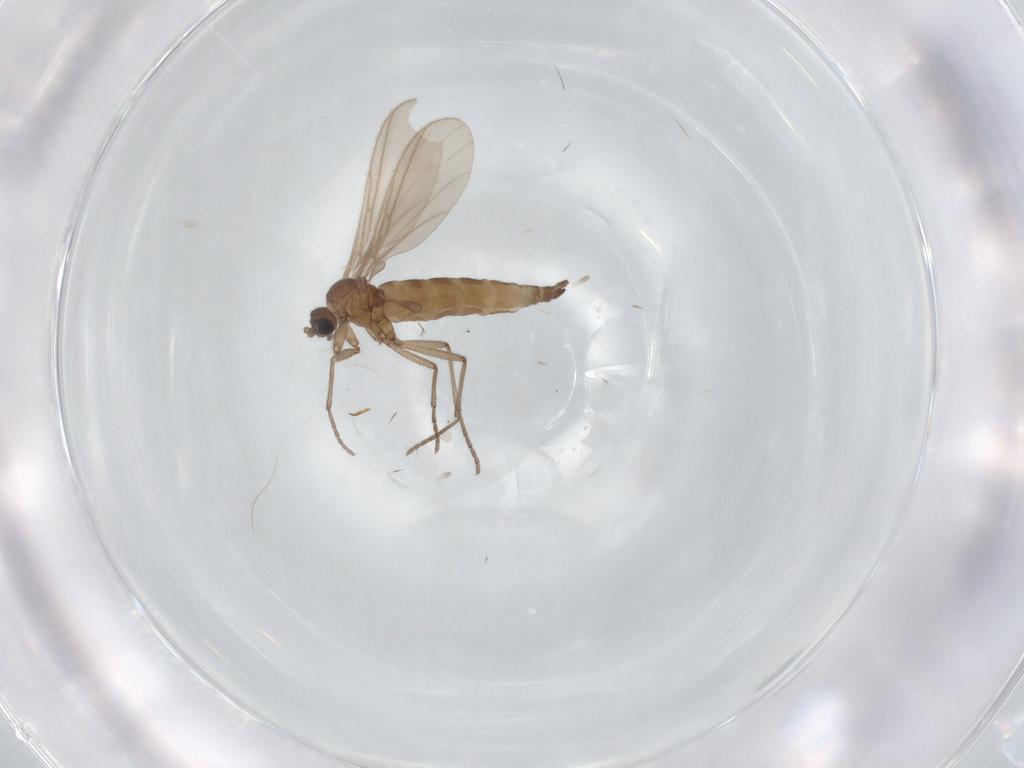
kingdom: Animalia
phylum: Arthropoda
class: Insecta
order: Diptera
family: Sciaridae
